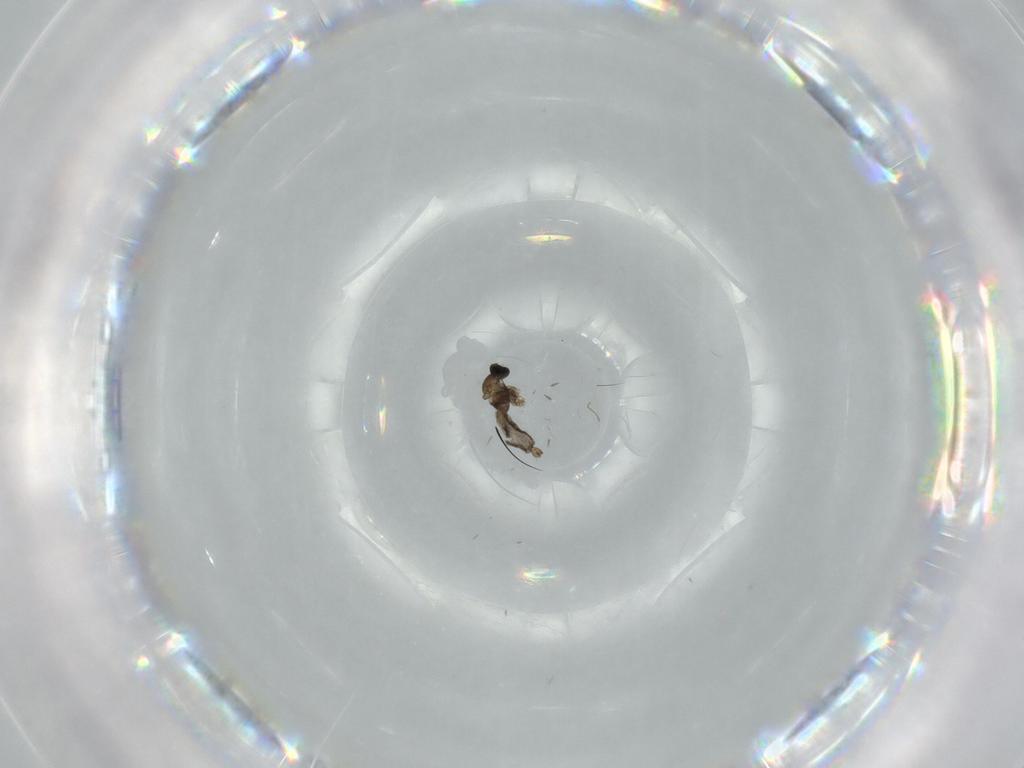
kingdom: Animalia
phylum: Arthropoda
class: Insecta
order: Diptera
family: Cecidomyiidae
